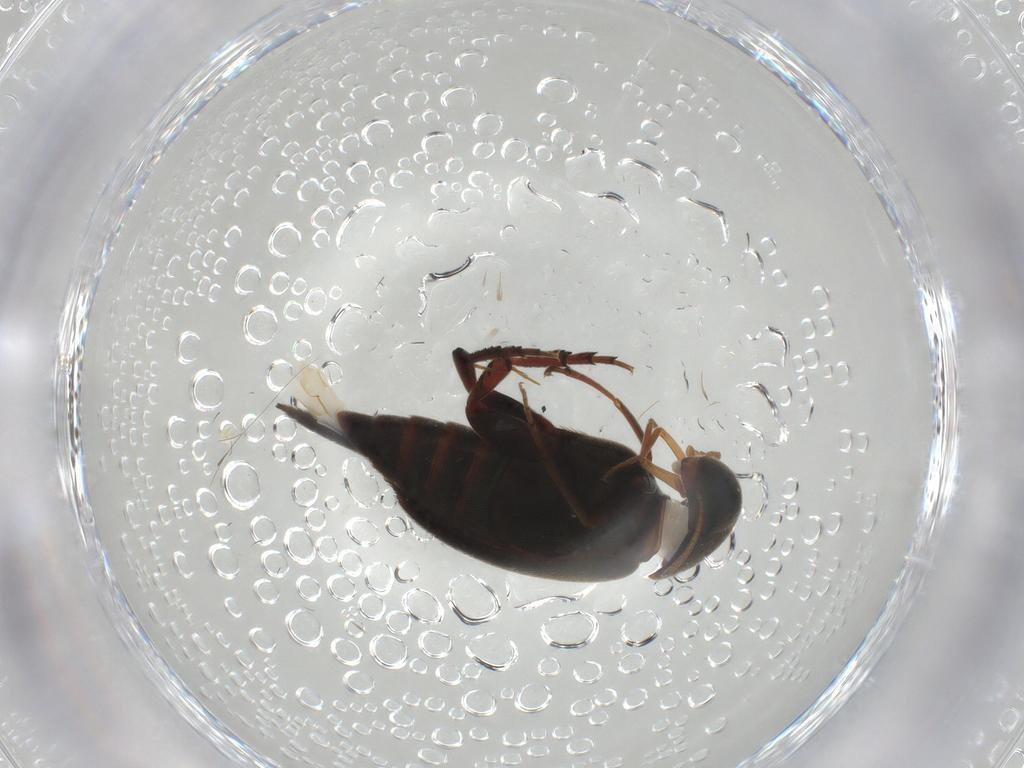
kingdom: Animalia
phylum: Arthropoda
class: Insecta
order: Coleoptera
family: Mordellidae
